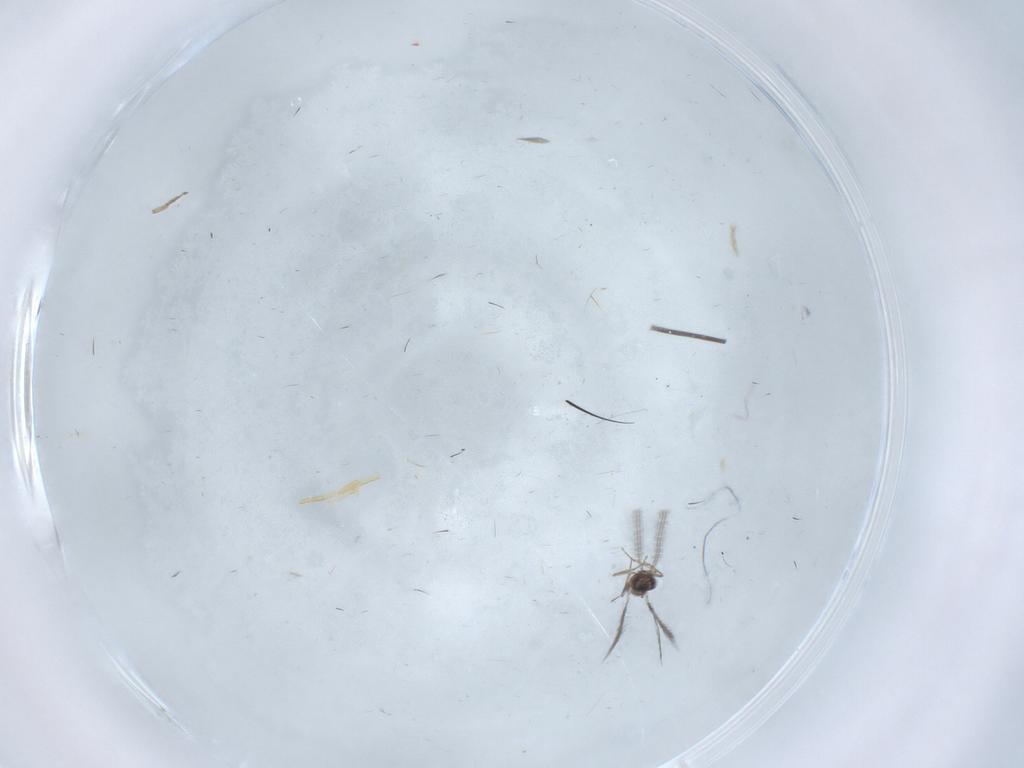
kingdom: Animalia
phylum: Arthropoda
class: Insecta
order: Hymenoptera
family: Mymaridae
